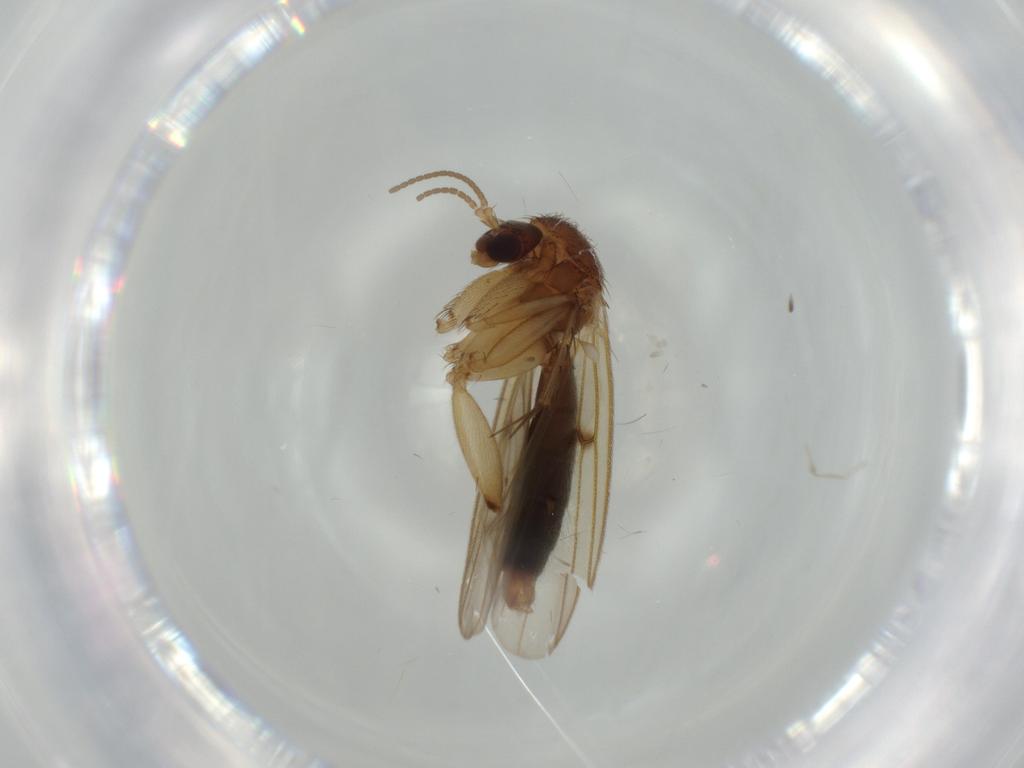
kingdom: Animalia
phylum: Arthropoda
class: Insecta
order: Diptera
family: Mycetophilidae
